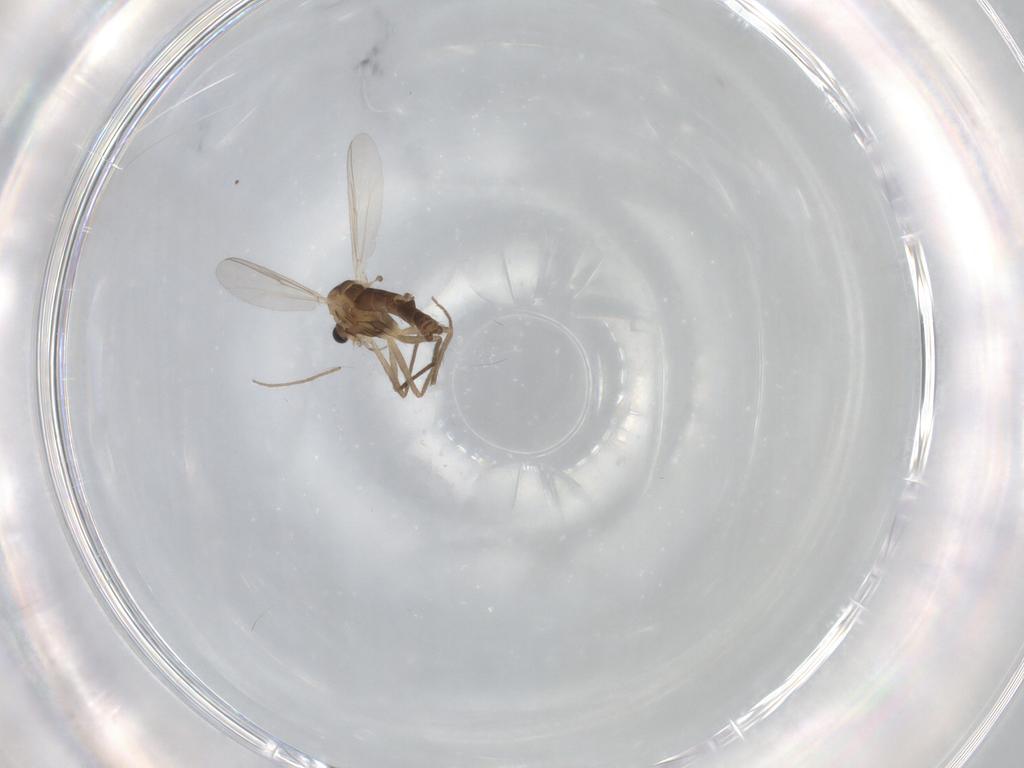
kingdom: Animalia
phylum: Arthropoda
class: Insecta
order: Diptera
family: Chironomidae
